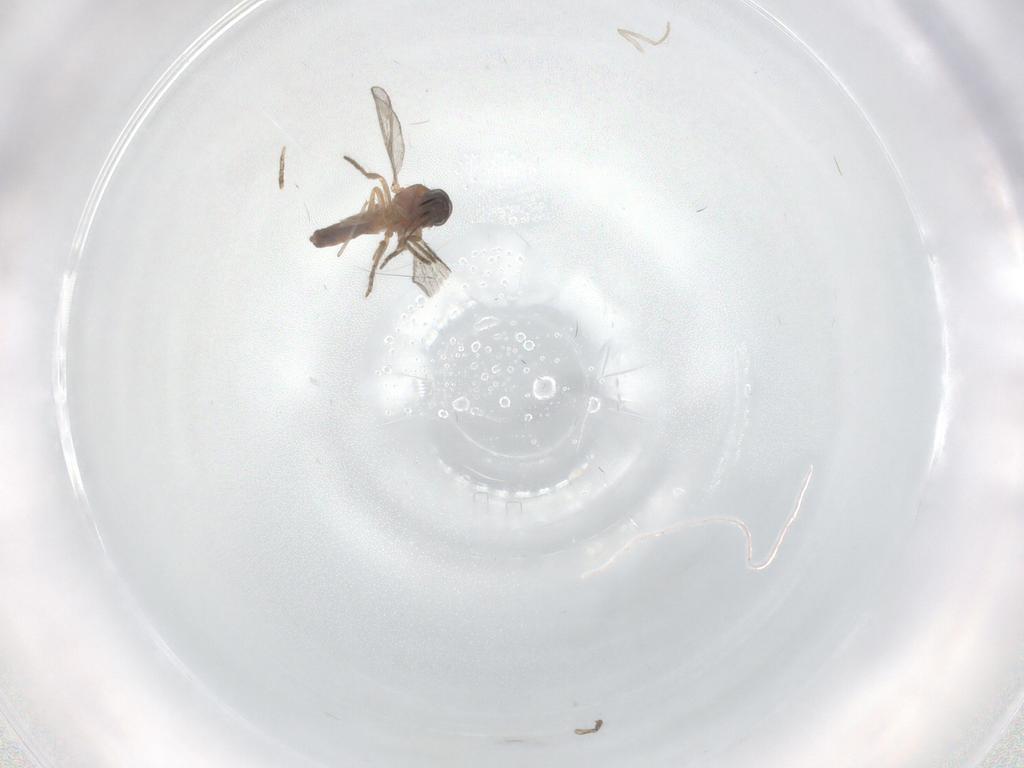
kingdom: Animalia
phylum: Arthropoda
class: Insecta
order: Diptera
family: Ceratopogonidae
